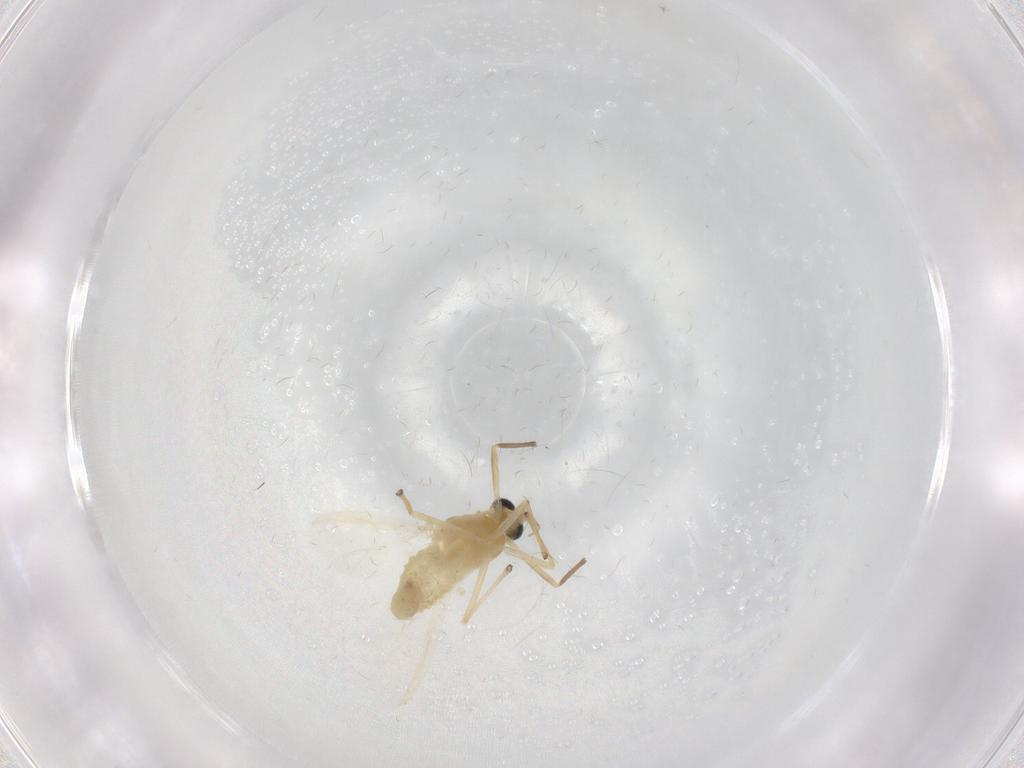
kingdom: Animalia
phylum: Arthropoda
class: Insecta
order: Diptera
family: Chironomidae
